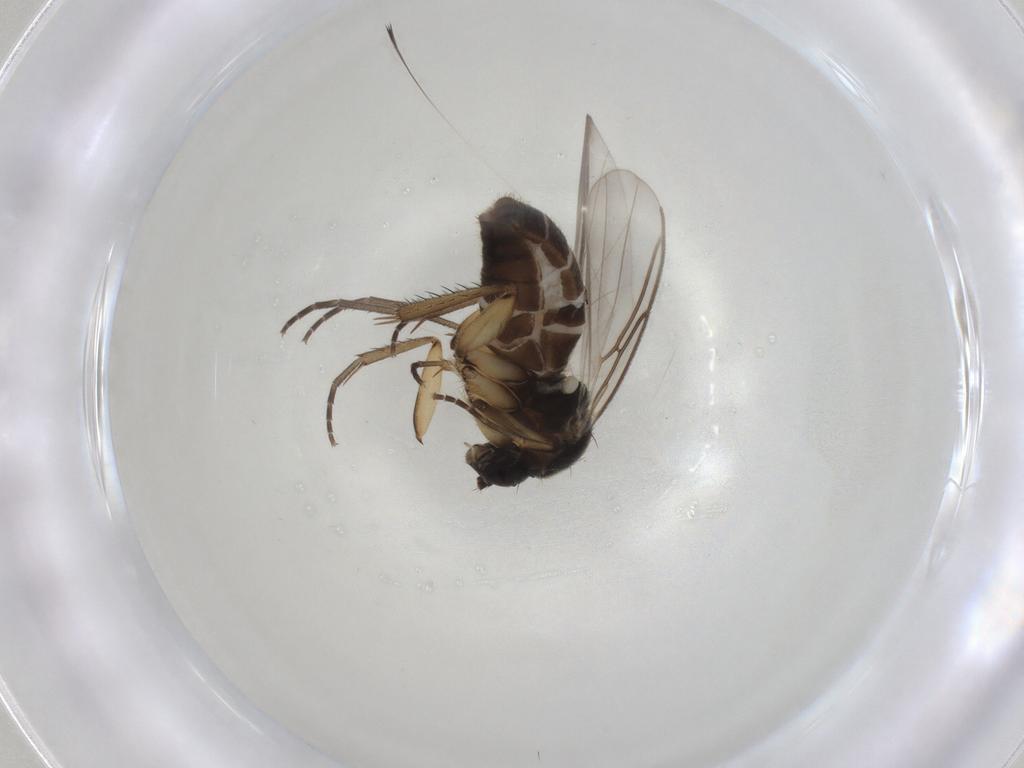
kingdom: Animalia
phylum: Arthropoda
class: Insecta
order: Diptera
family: Mycetophilidae
